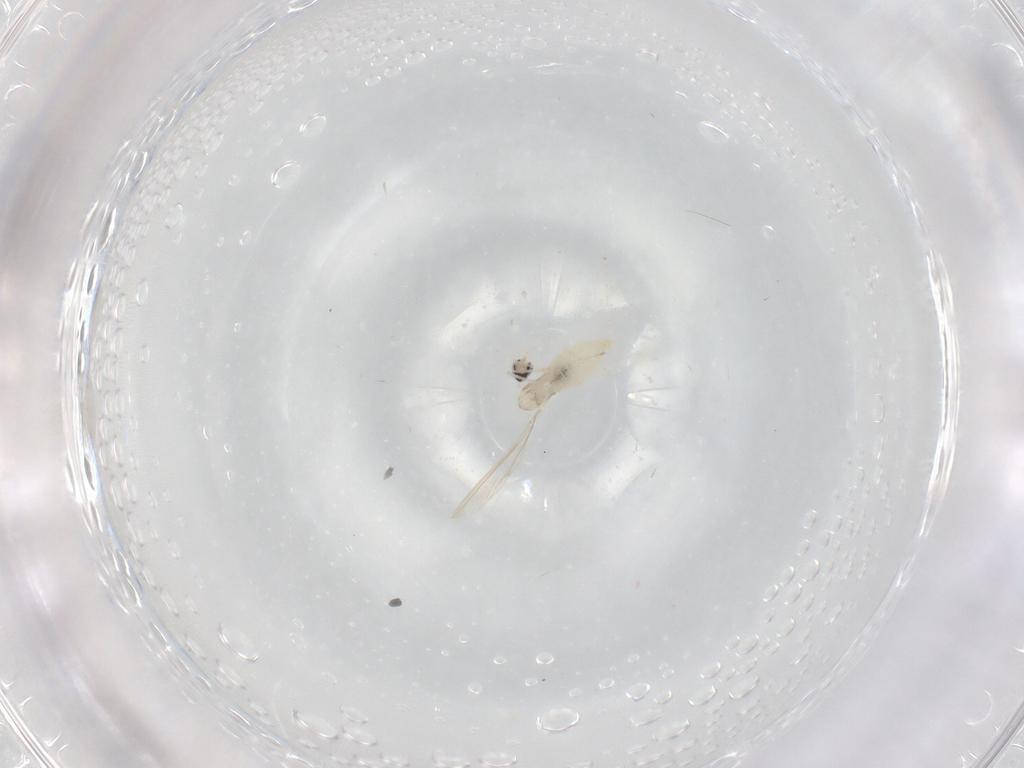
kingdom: Animalia
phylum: Arthropoda
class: Insecta
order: Diptera
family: Cecidomyiidae
